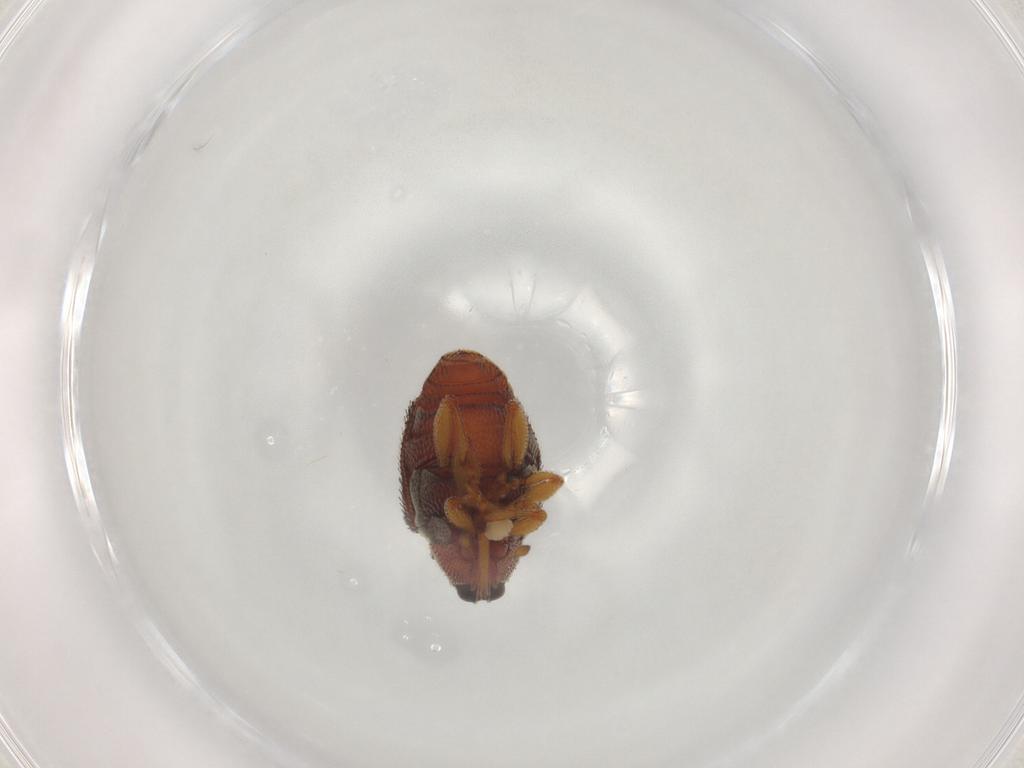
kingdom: Animalia
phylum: Arthropoda
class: Insecta
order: Coleoptera
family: Curculionidae
